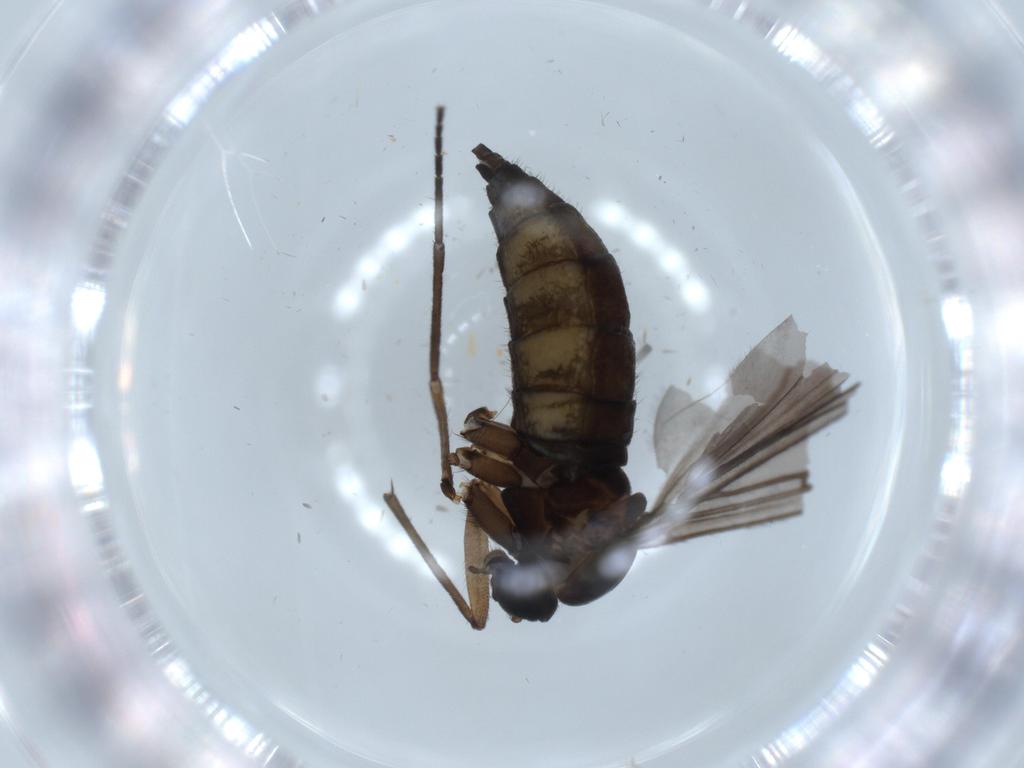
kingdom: Animalia
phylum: Arthropoda
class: Insecta
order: Diptera
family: Sciaridae
